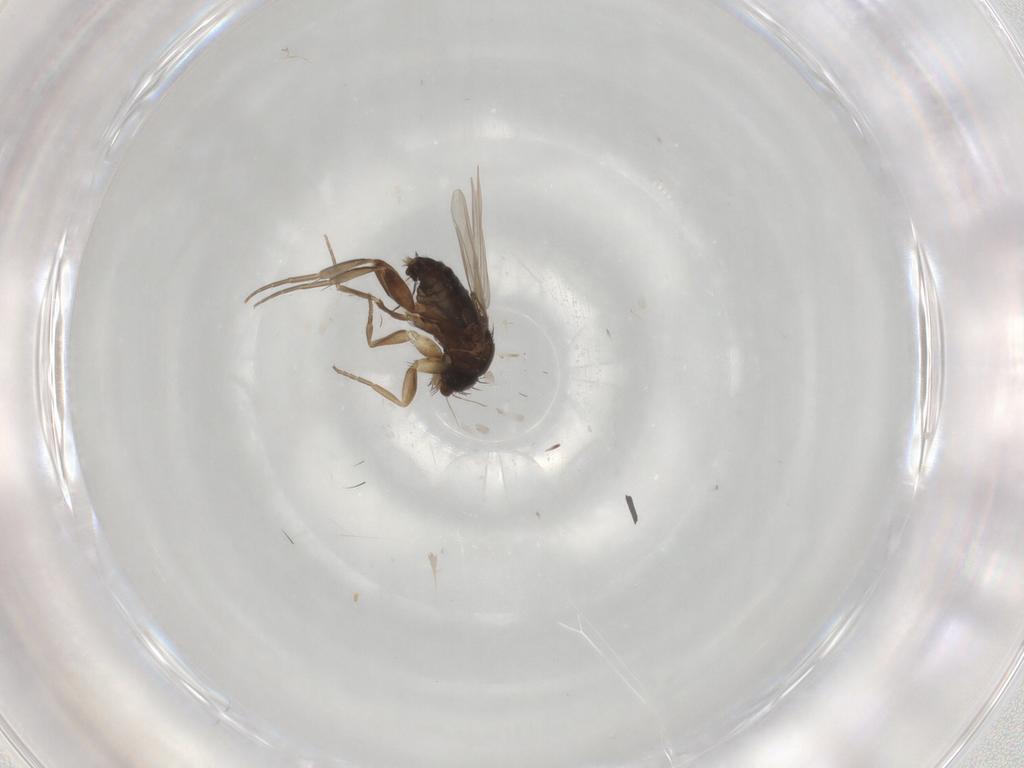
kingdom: Animalia
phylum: Arthropoda
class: Insecta
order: Diptera
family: Phoridae
